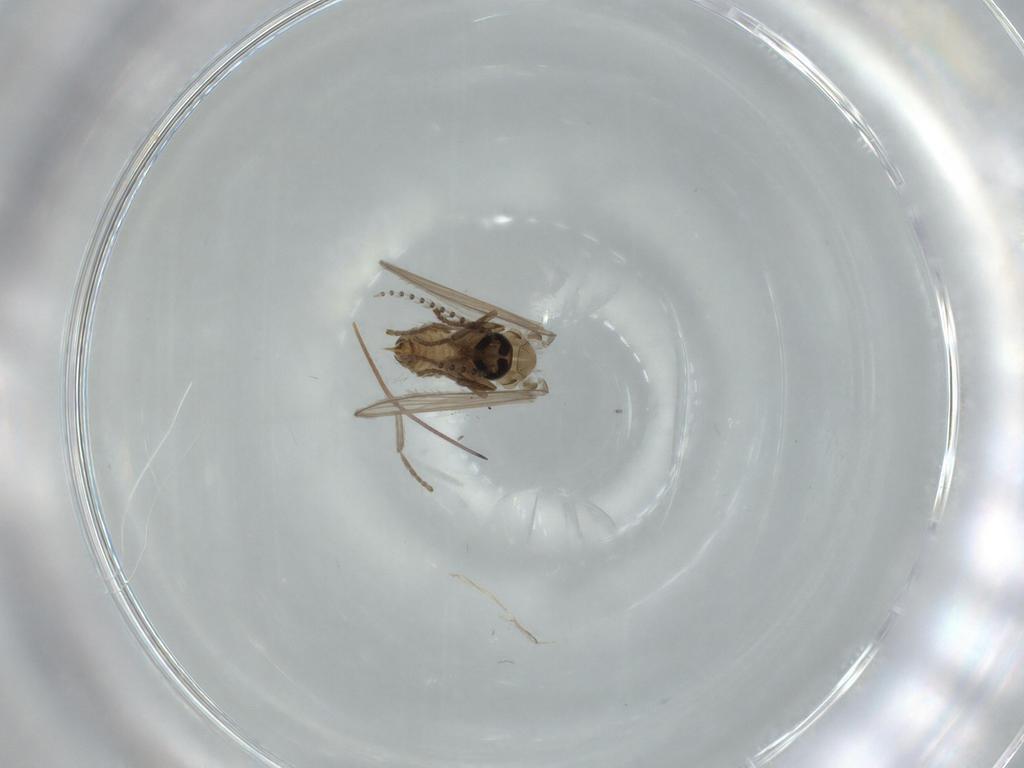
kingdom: Animalia
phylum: Arthropoda
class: Insecta
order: Diptera
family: Psychodidae
